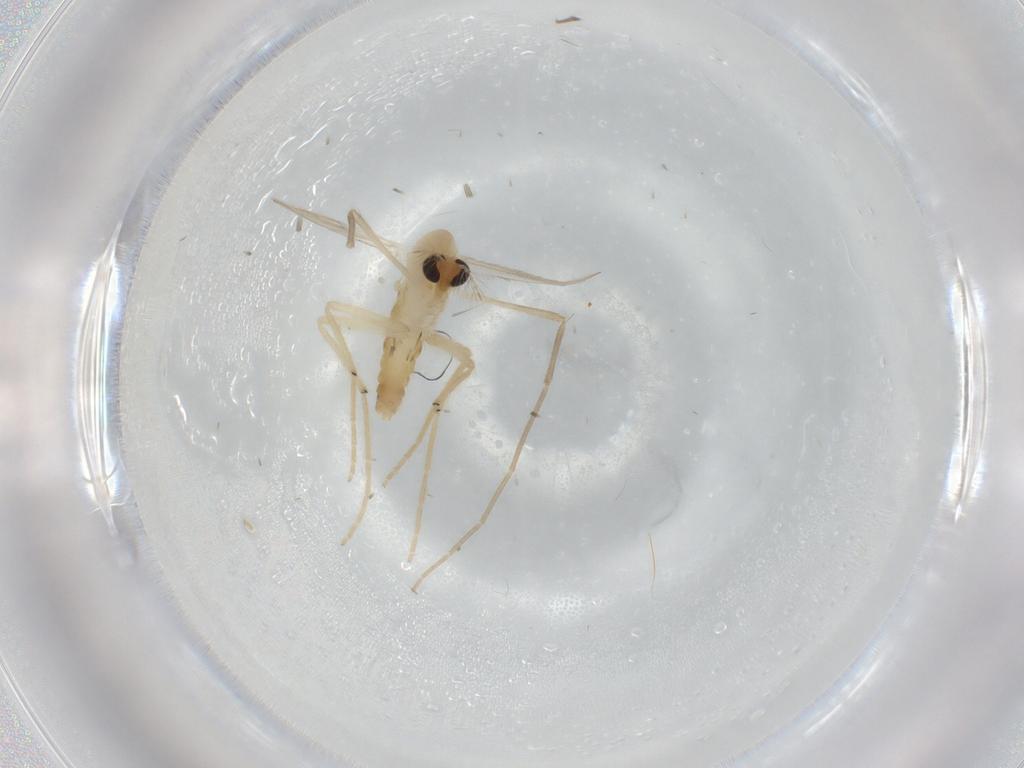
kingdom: Animalia
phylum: Arthropoda
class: Insecta
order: Diptera
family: Chironomidae
